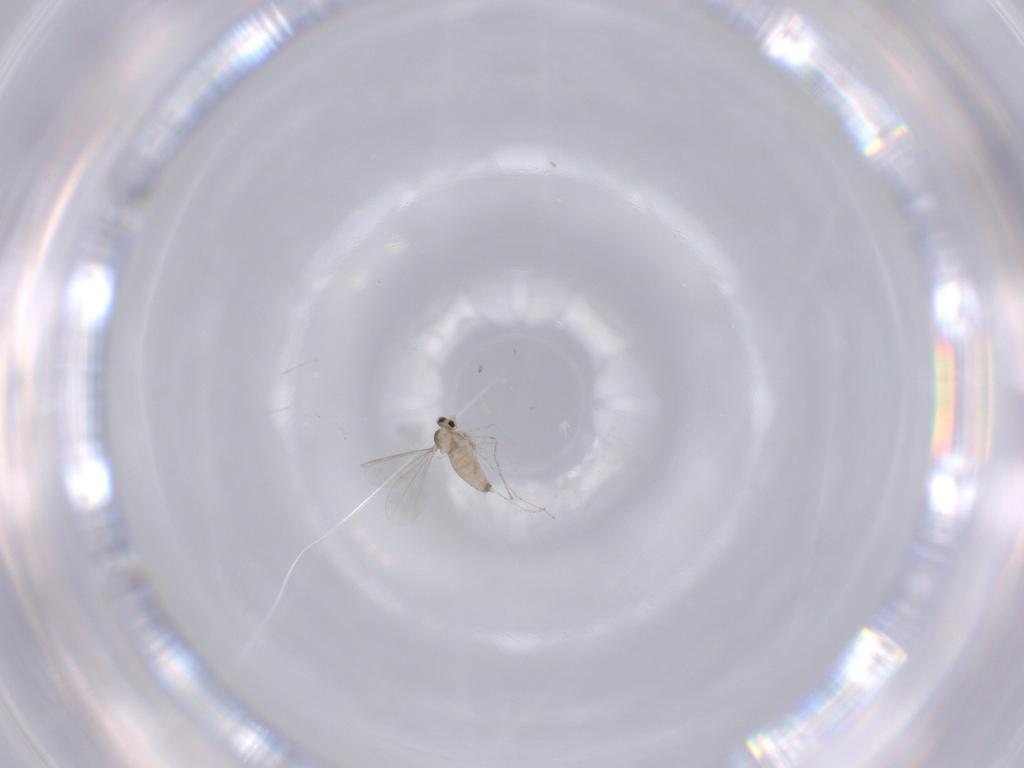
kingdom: Animalia
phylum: Arthropoda
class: Insecta
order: Diptera
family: Cecidomyiidae
